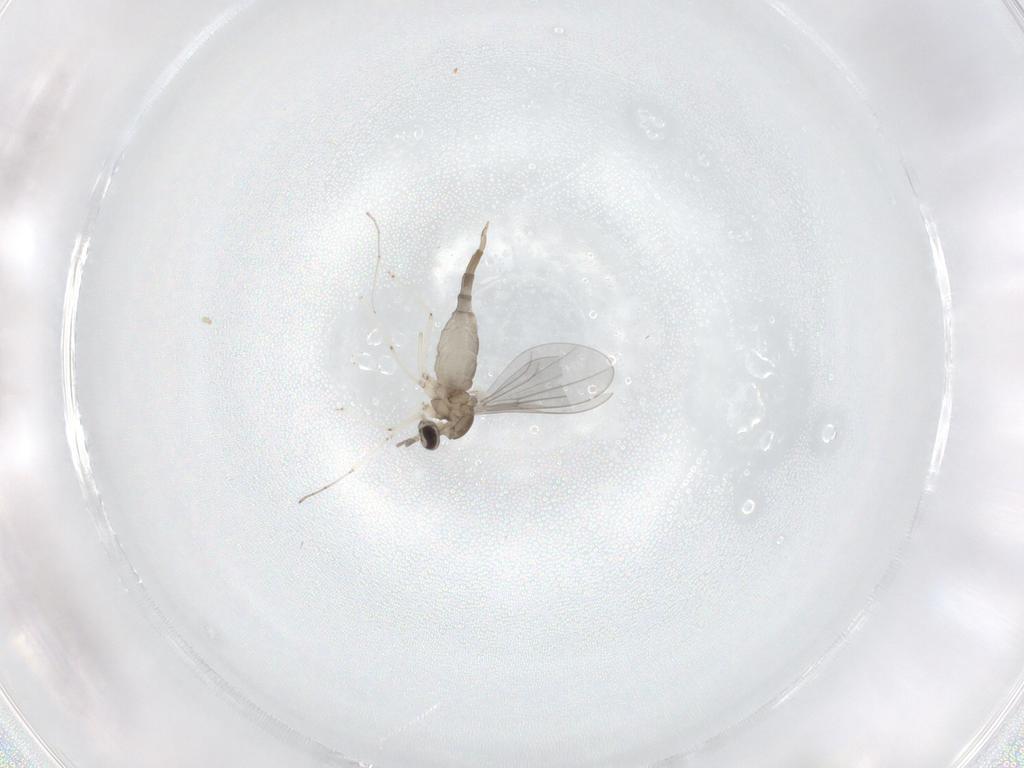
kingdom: Animalia
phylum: Arthropoda
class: Insecta
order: Diptera
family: Cecidomyiidae
